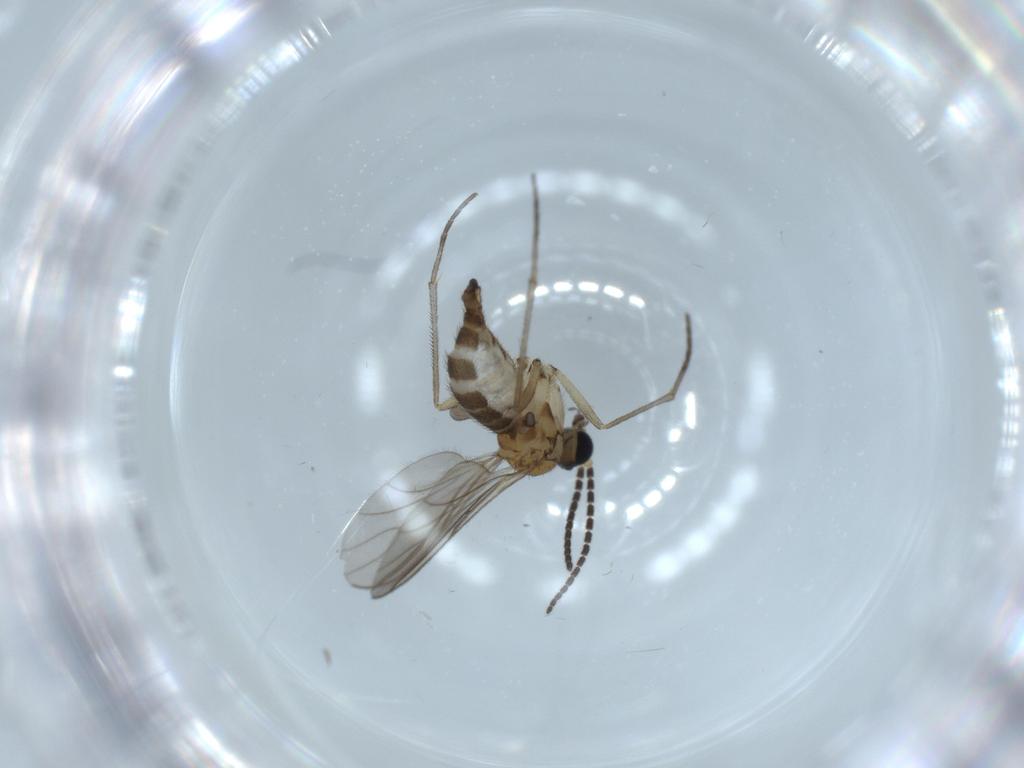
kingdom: Animalia
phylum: Arthropoda
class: Insecta
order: Diptera
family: Sciaridae
